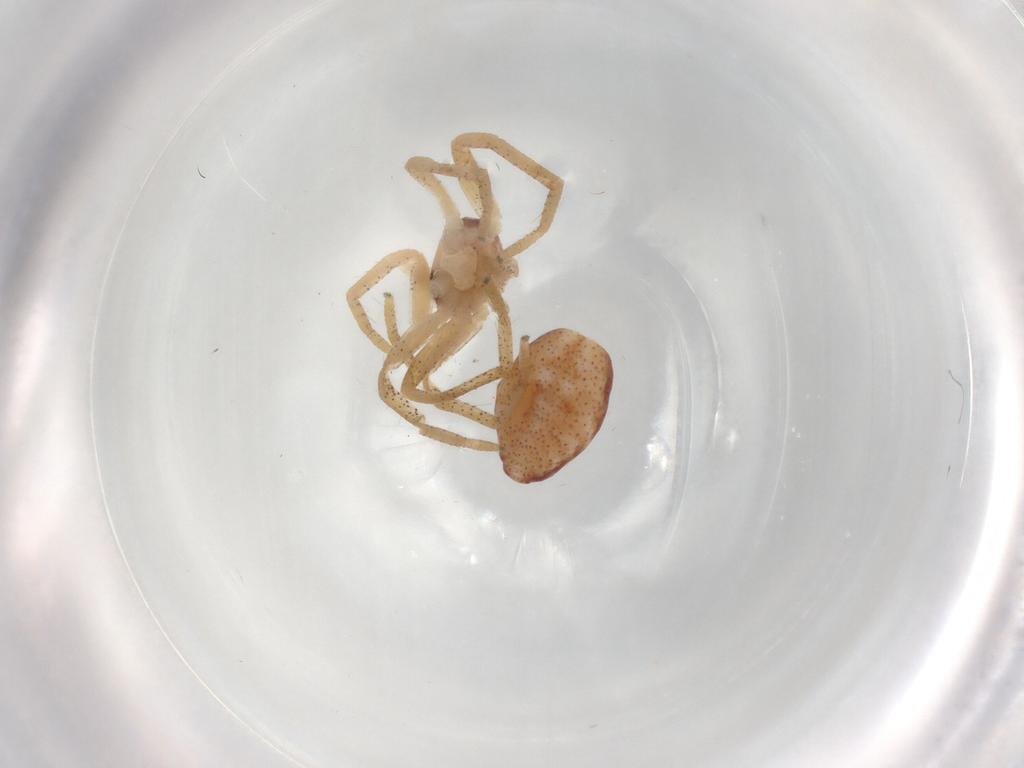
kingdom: Animalia
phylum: Arthropoda
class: Arachnida
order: Araneae
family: Philodromidae
